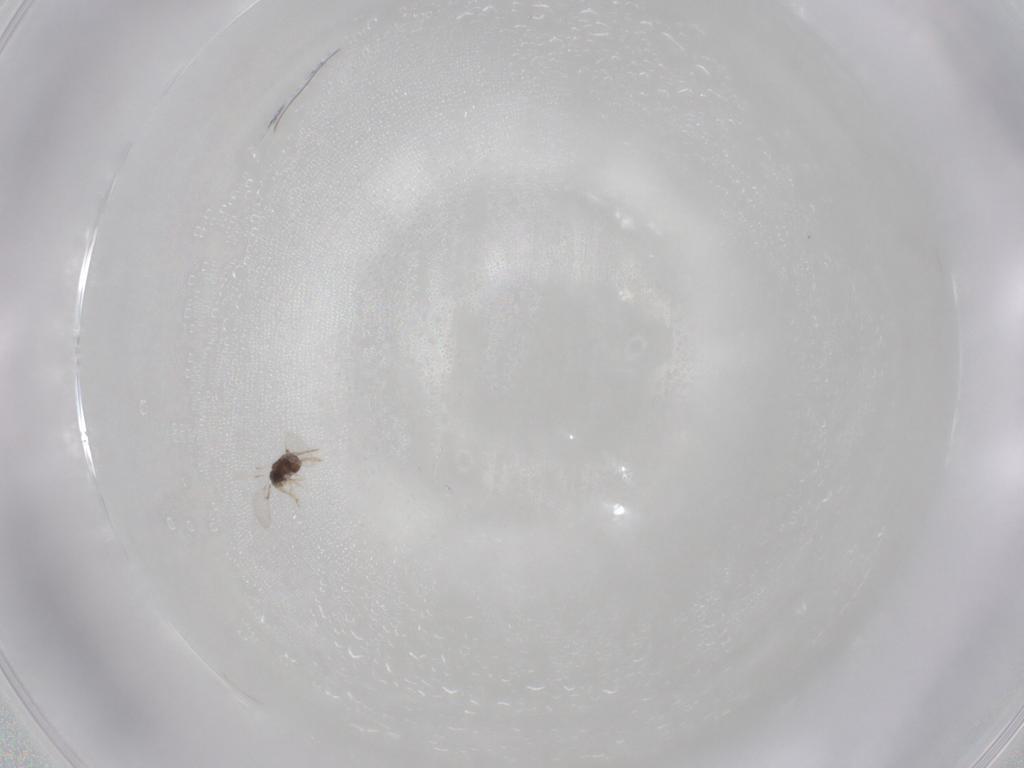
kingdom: Animalia
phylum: Arthropoda
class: Insecta
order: Hymenoptera
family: Trichogrammatidae
